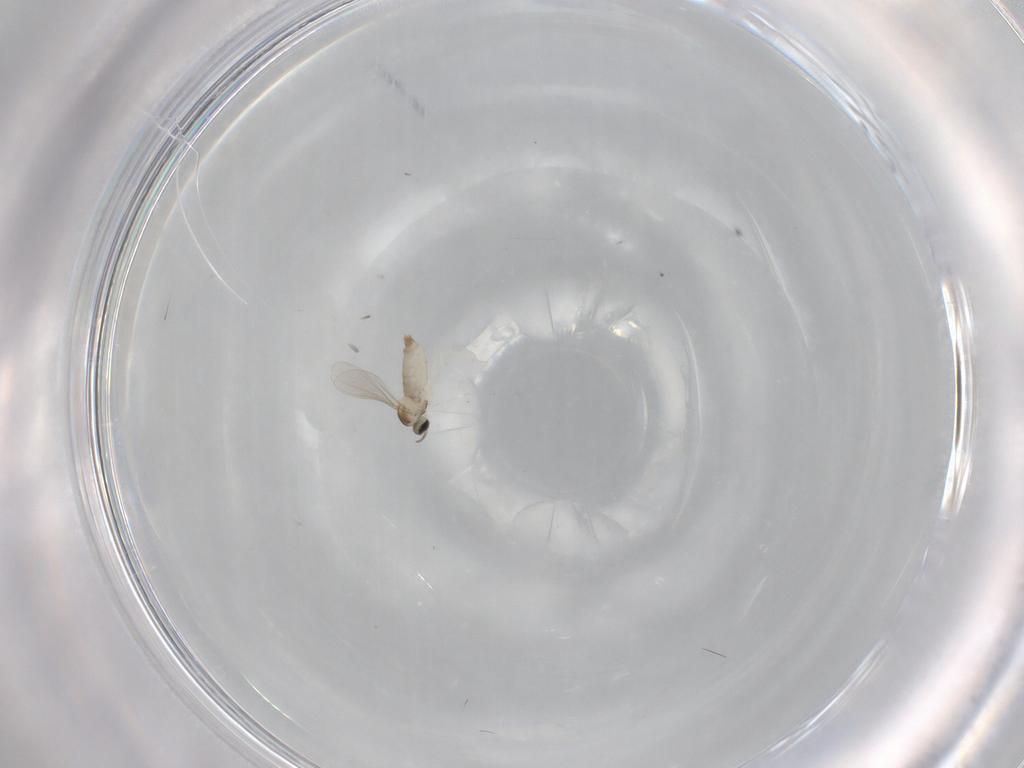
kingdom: Animalia
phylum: Arthropoda
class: Insecta
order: Diptera
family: Cecidomyiidae
